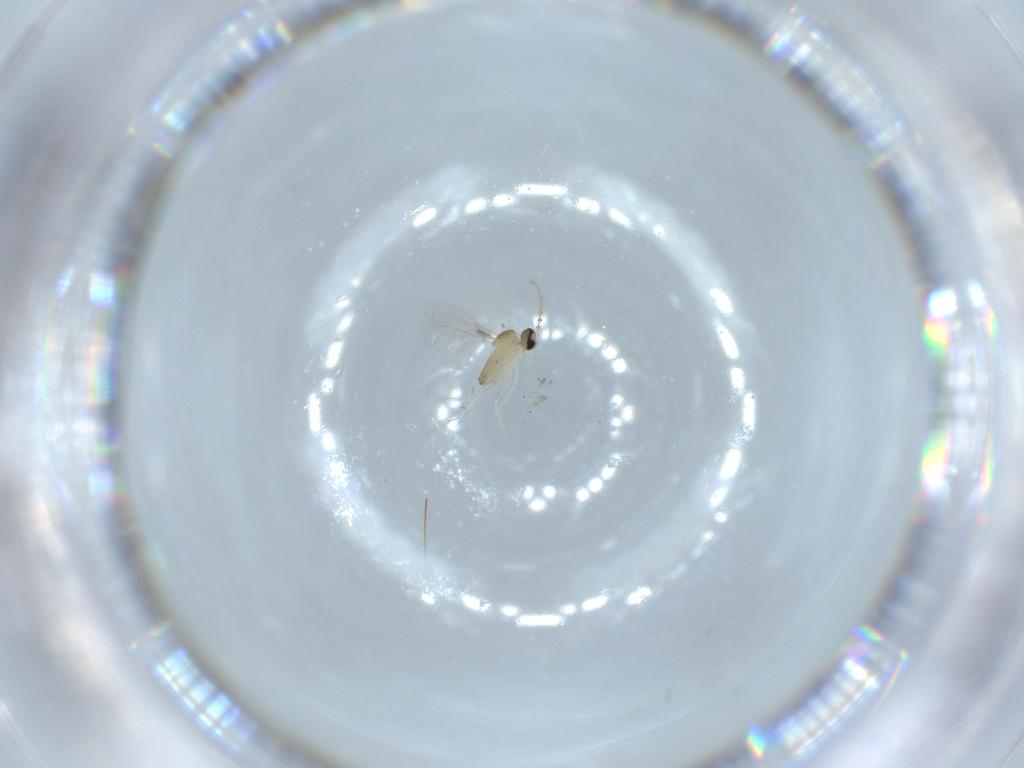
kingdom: Animalia
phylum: Arthropoda
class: Insecta
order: Diptera
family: Cecidomyiidae
